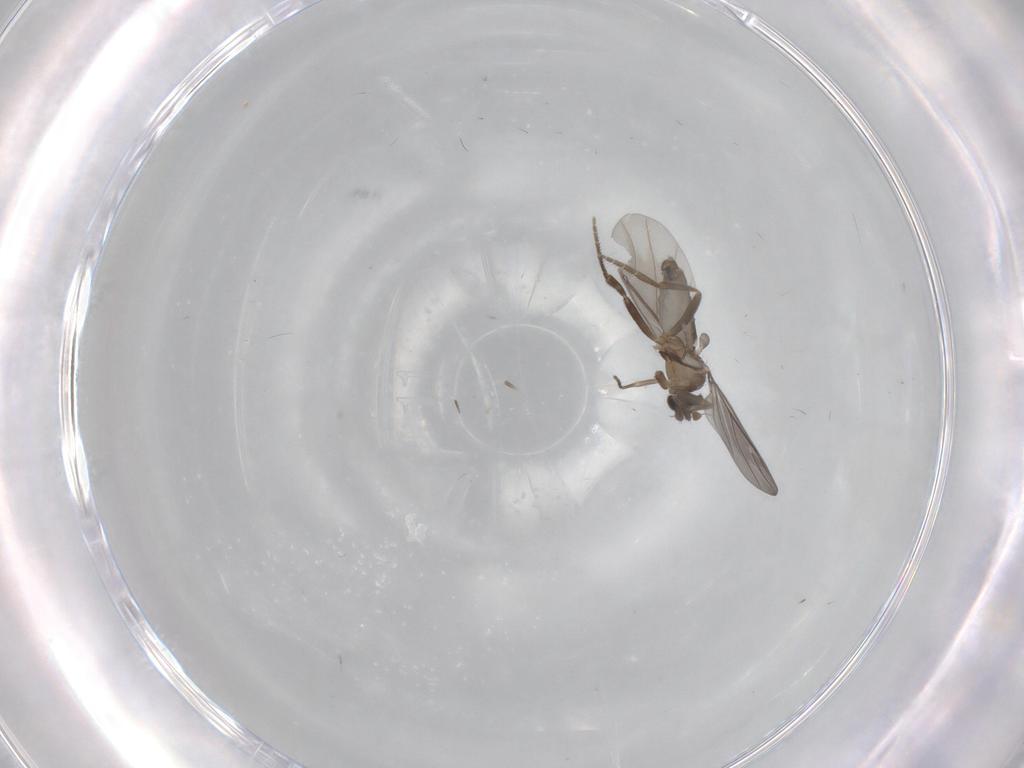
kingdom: Animalia
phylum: Arthropoda
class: Insecta
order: Diptera
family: Phoridae
